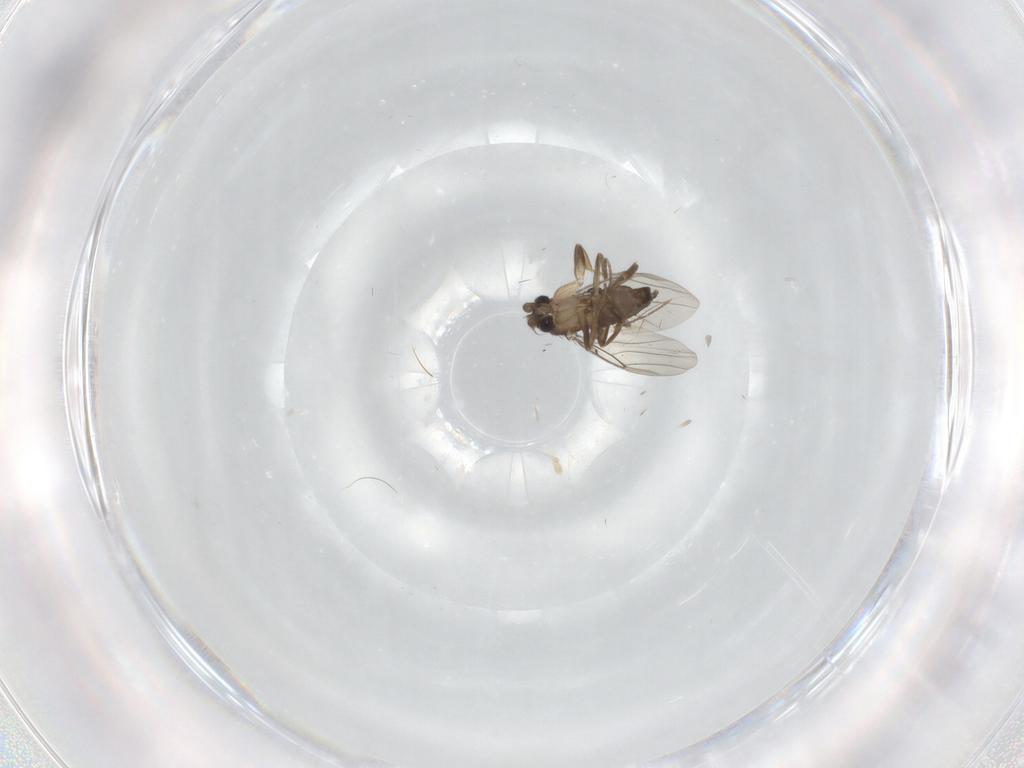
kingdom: Animalia
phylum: Arthropoda
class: Insecta
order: Diptera
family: Phoridae
